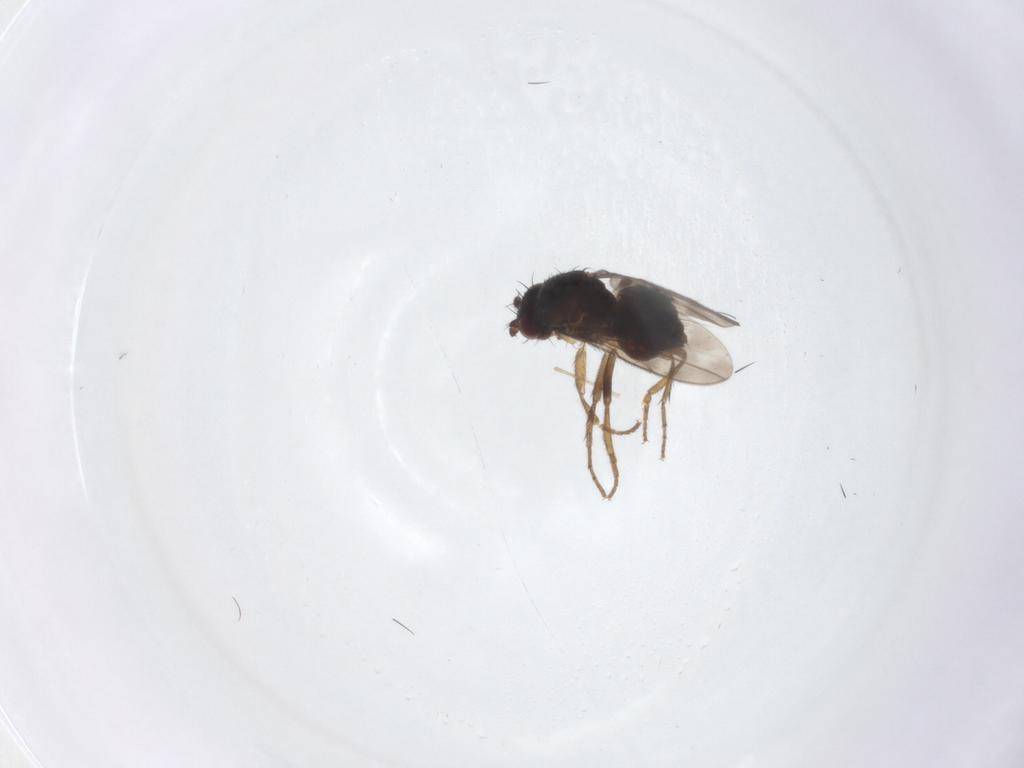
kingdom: Animalia
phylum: Arthropoda
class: Insecta
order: Diptera
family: Sphaeroceridae
